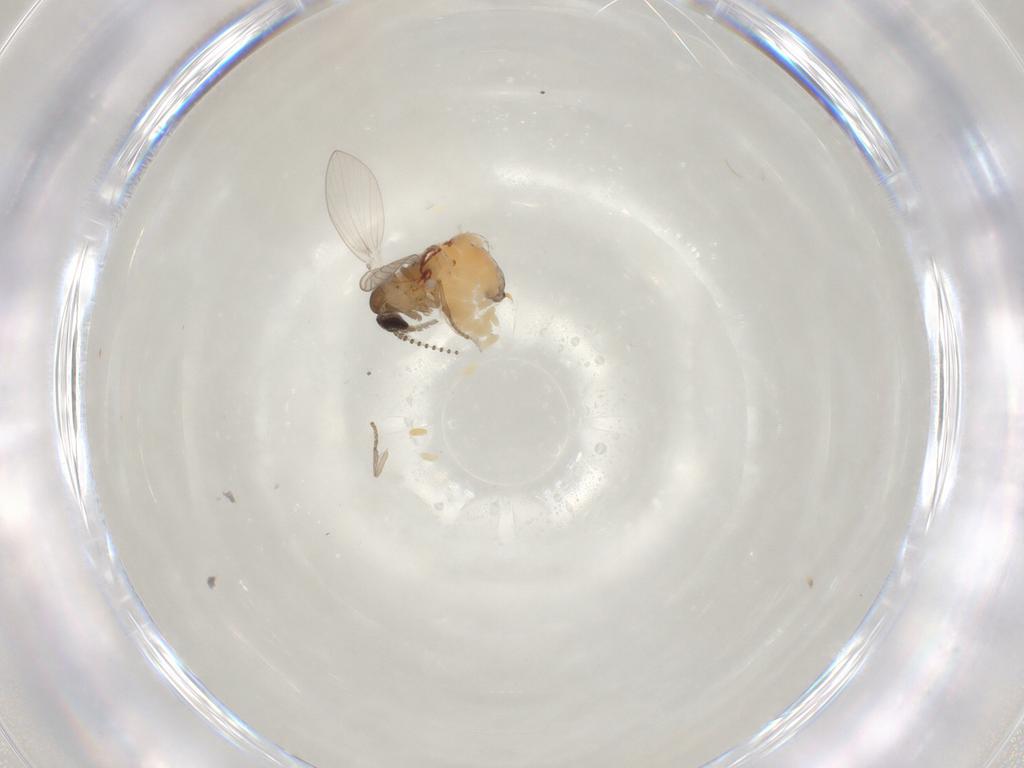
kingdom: Animalia
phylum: Arthropoda
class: Insecta
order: Diptera
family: Psychodidae
